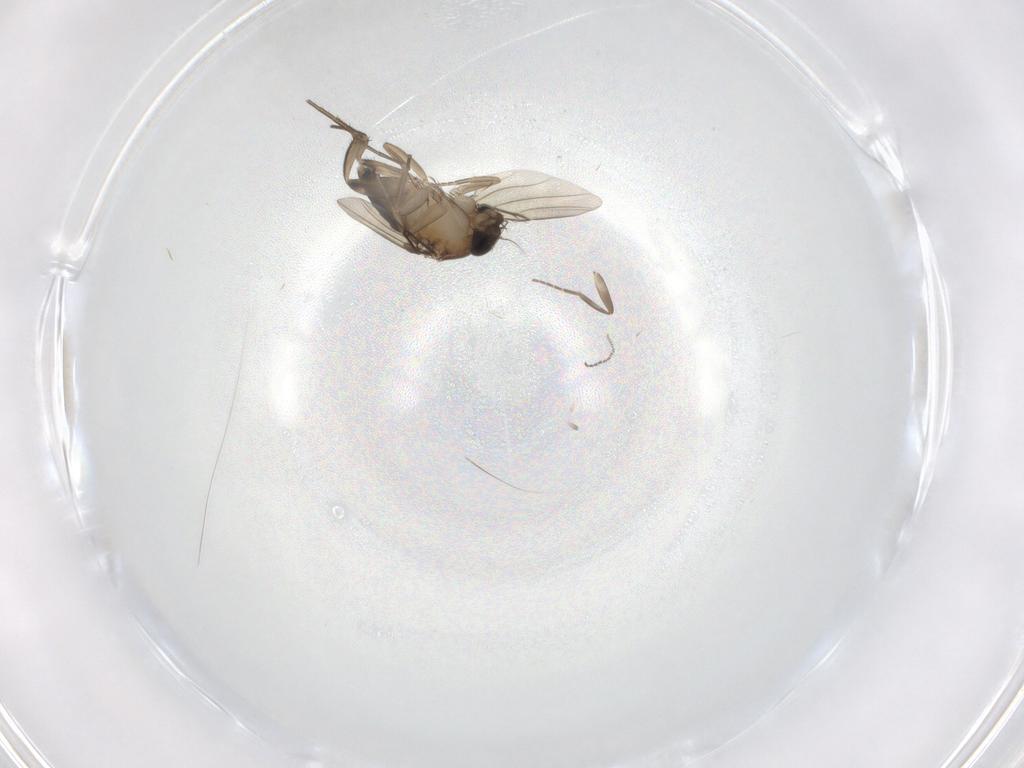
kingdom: Animalia
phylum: Arthropoda
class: Insecta
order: Diptera
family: Phoridae
